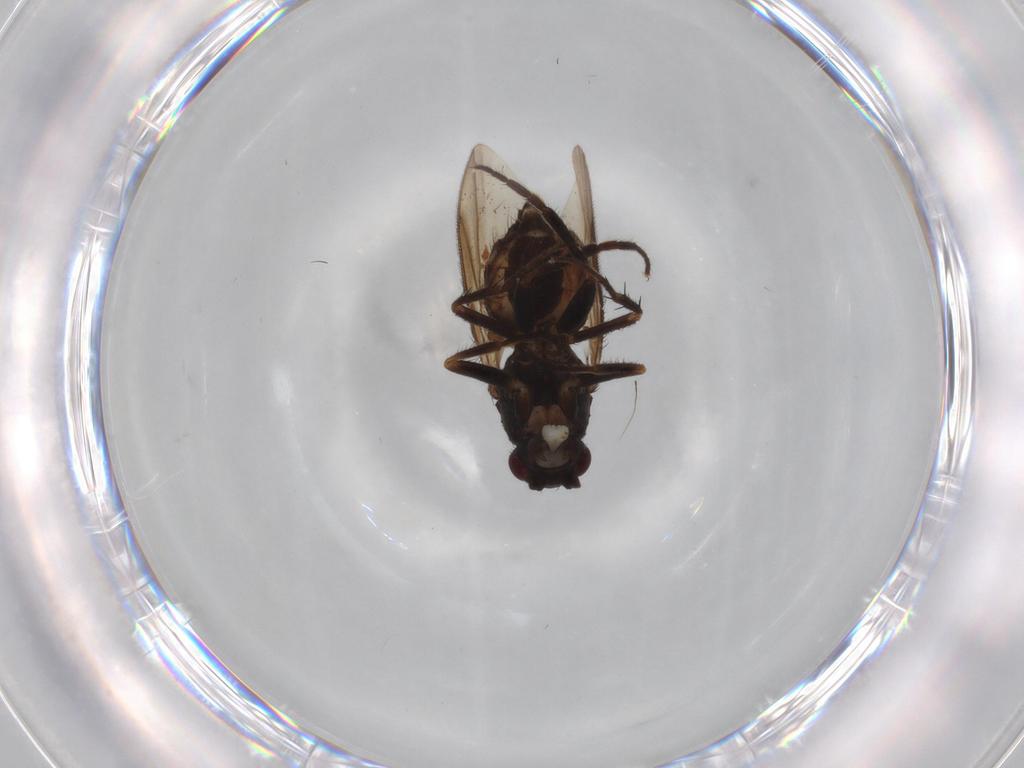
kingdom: Animalia
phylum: Arthropoda
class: Insecta
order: Diptera
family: Sphaeroceridae
